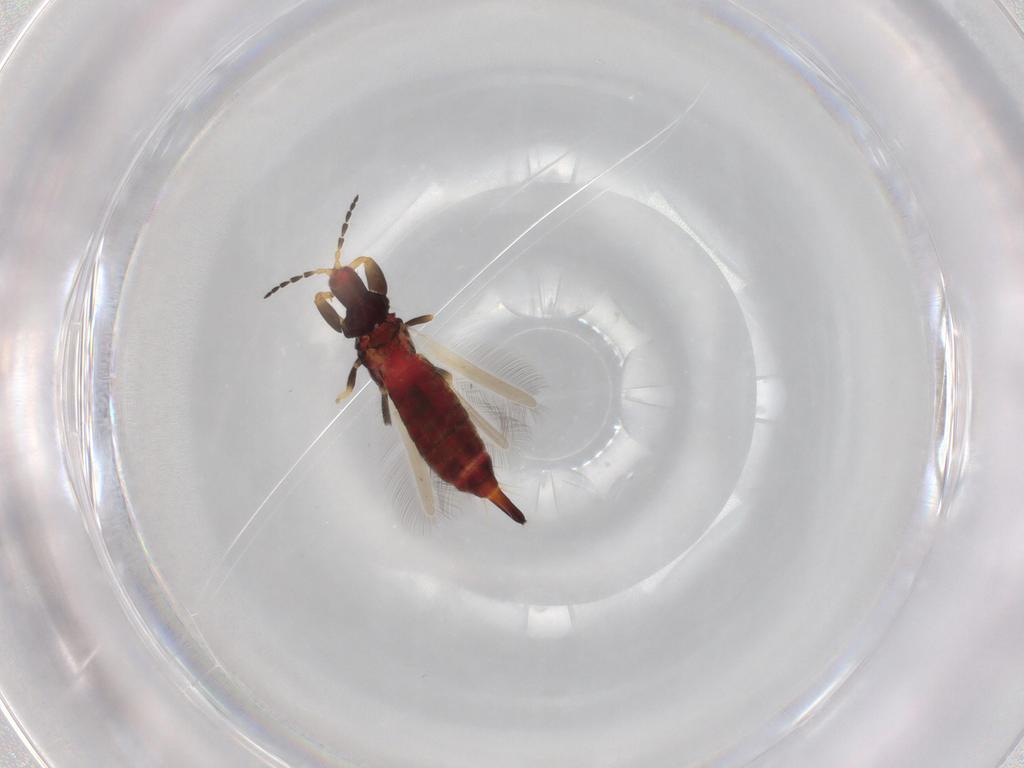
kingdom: Animalia
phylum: Arthropoda
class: Insecta
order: Thysanoptera
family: Phlaeothripidae
